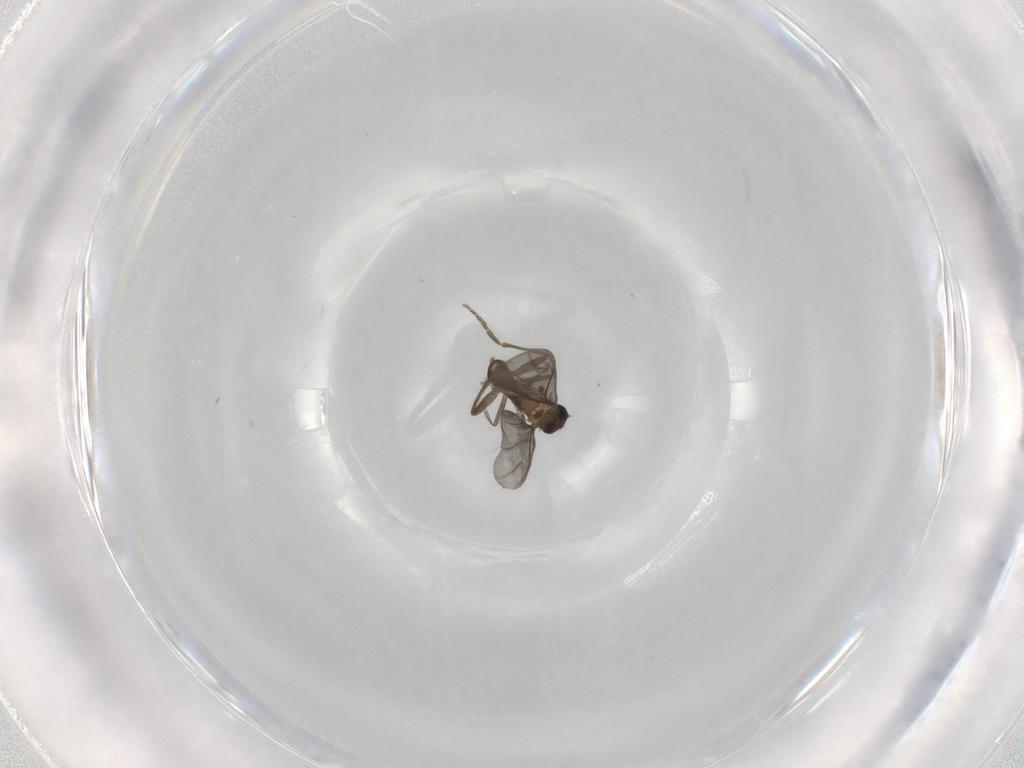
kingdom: Animalia
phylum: Arthropoda
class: Insecta
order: Diptera
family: Phoridae
